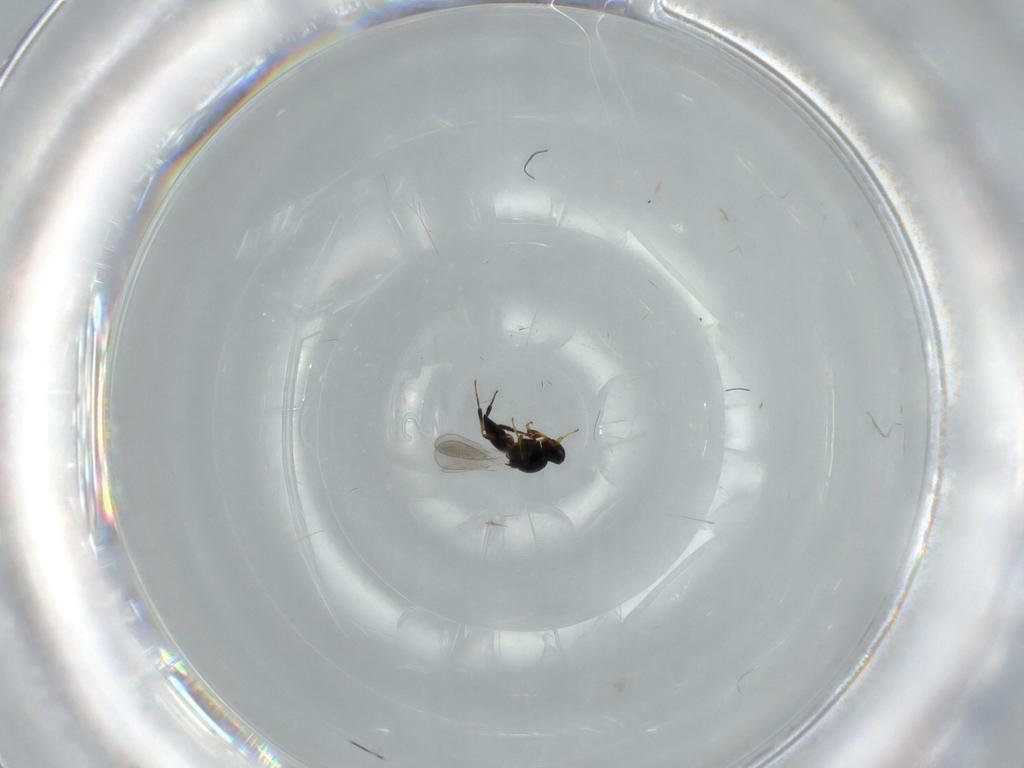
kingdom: Animalia
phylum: Arthropoda
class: Insecta
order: Hymenoptera
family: Platygastridae
